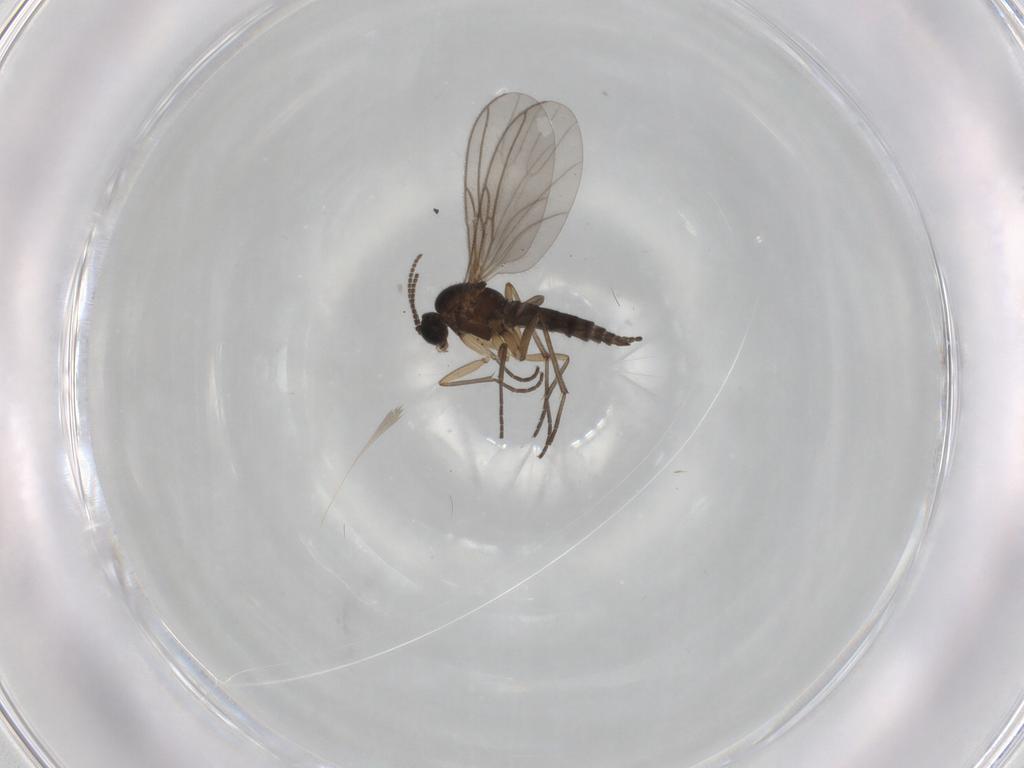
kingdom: Animalia
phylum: Arthropoda
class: Insecta
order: Diptera
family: Sciaridae
